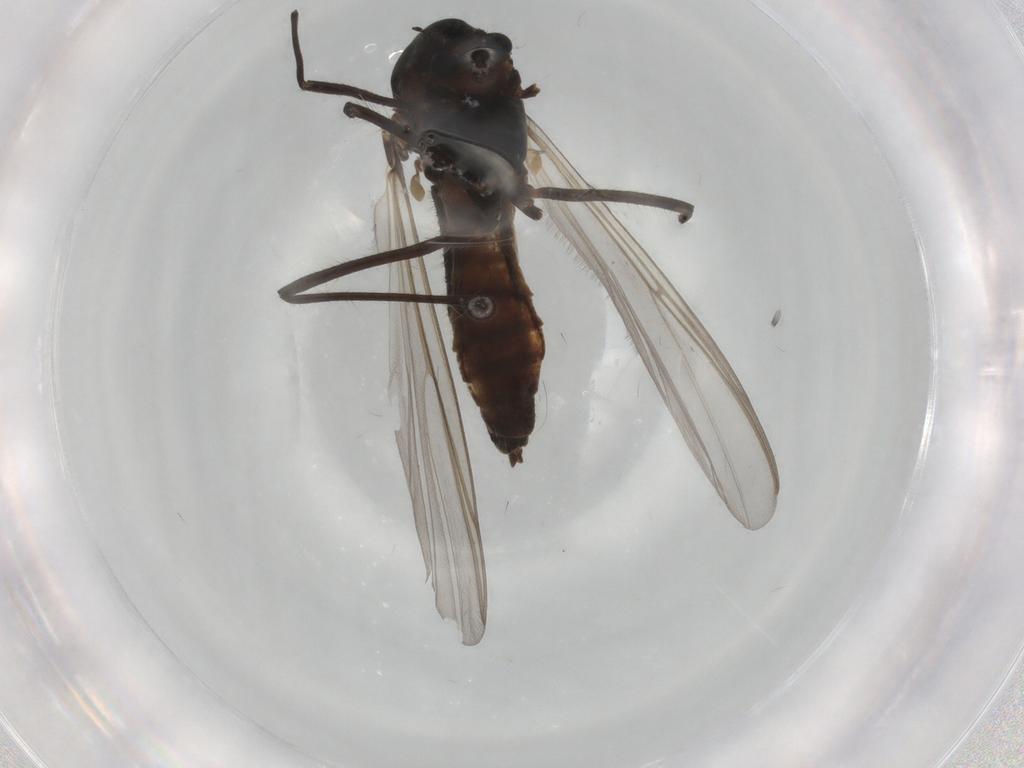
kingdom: Animalia
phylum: Arthropoda
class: Insecta
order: Diptera
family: Chironomidae
